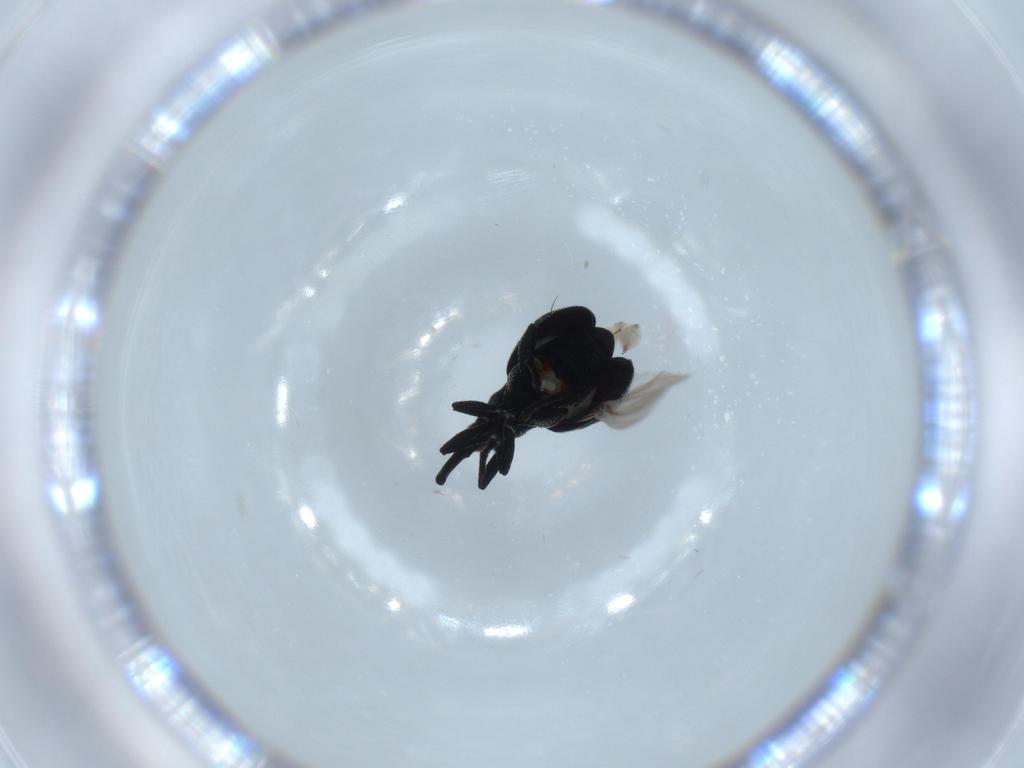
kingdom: Animalia
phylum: Arthropoda
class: Insecta
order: Coleoptera
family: Brentidae
